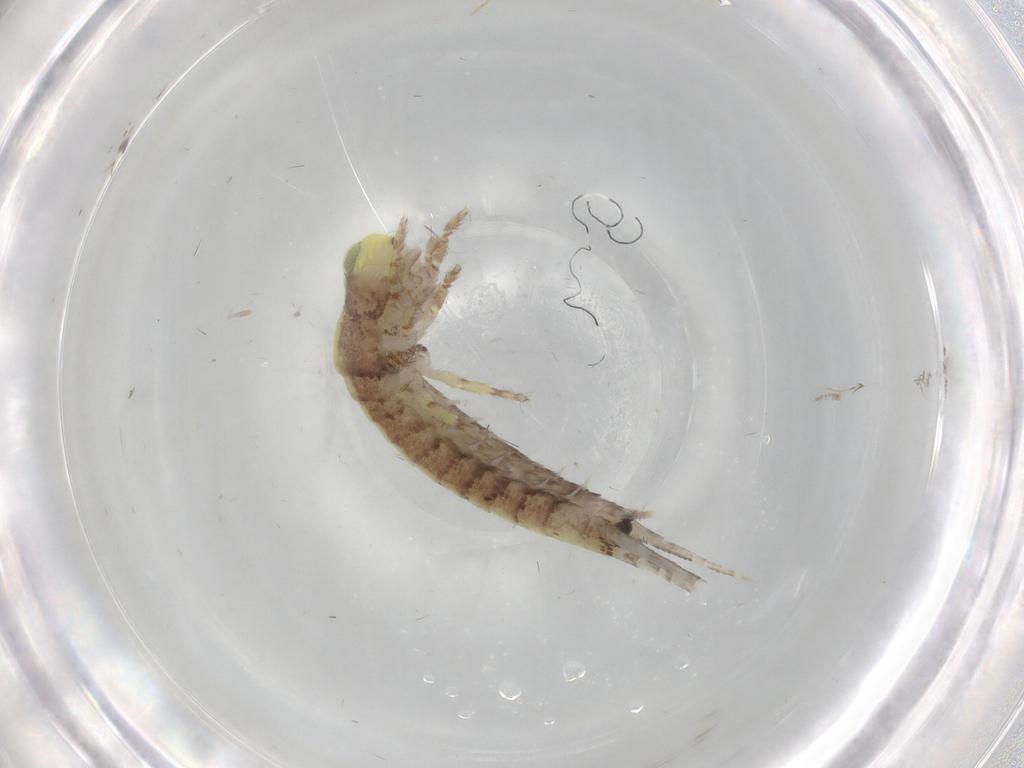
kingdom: Animalia
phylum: Arthropoda
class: Insecta
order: Archaeognatha
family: Machilidae
